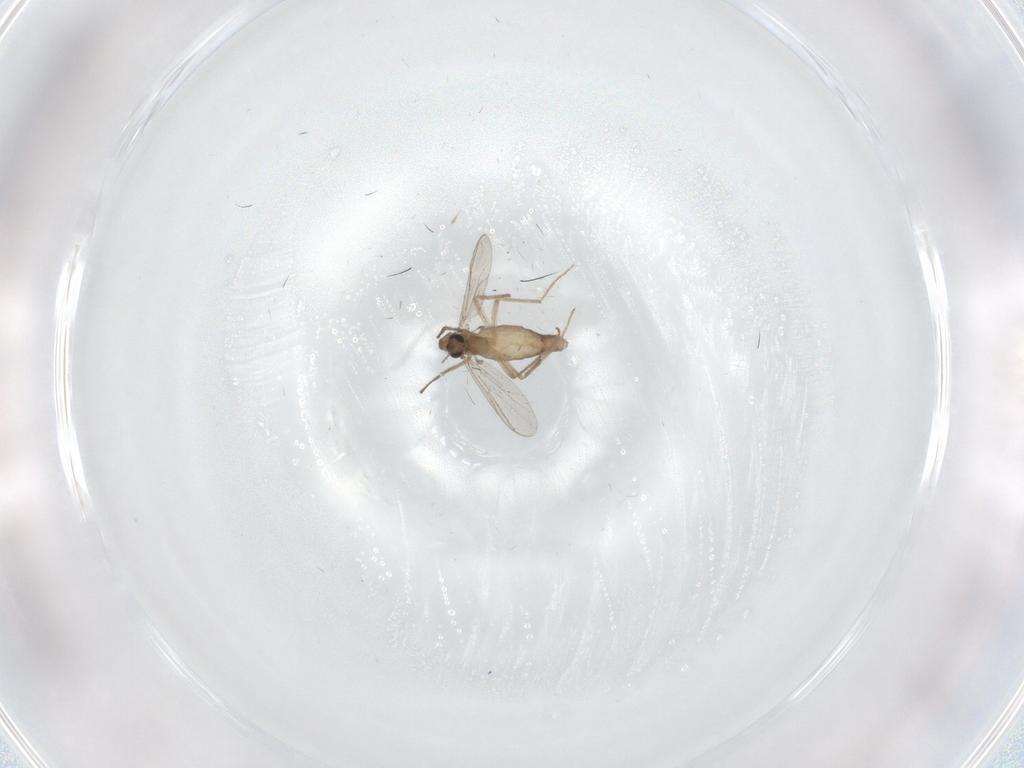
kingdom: Animalia
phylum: Arthropoda
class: Insecta
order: Diptera
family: Chironomidae
